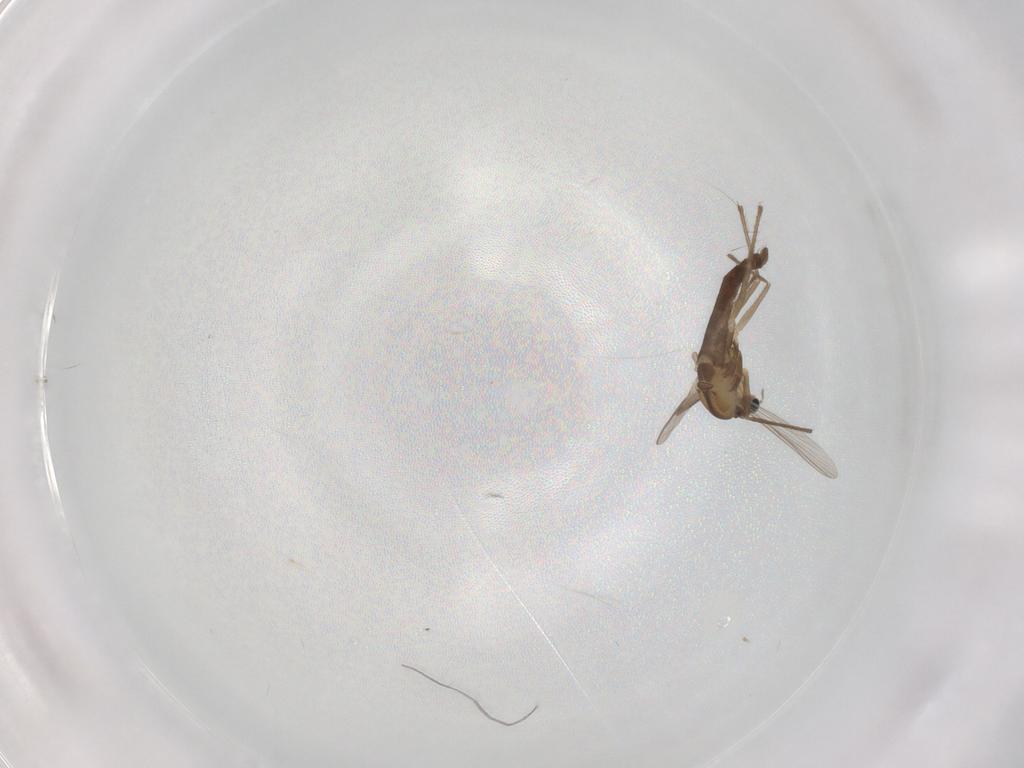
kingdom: Animalia
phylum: Arthropoda
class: Insecta
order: Diptera
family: Chironomidae
